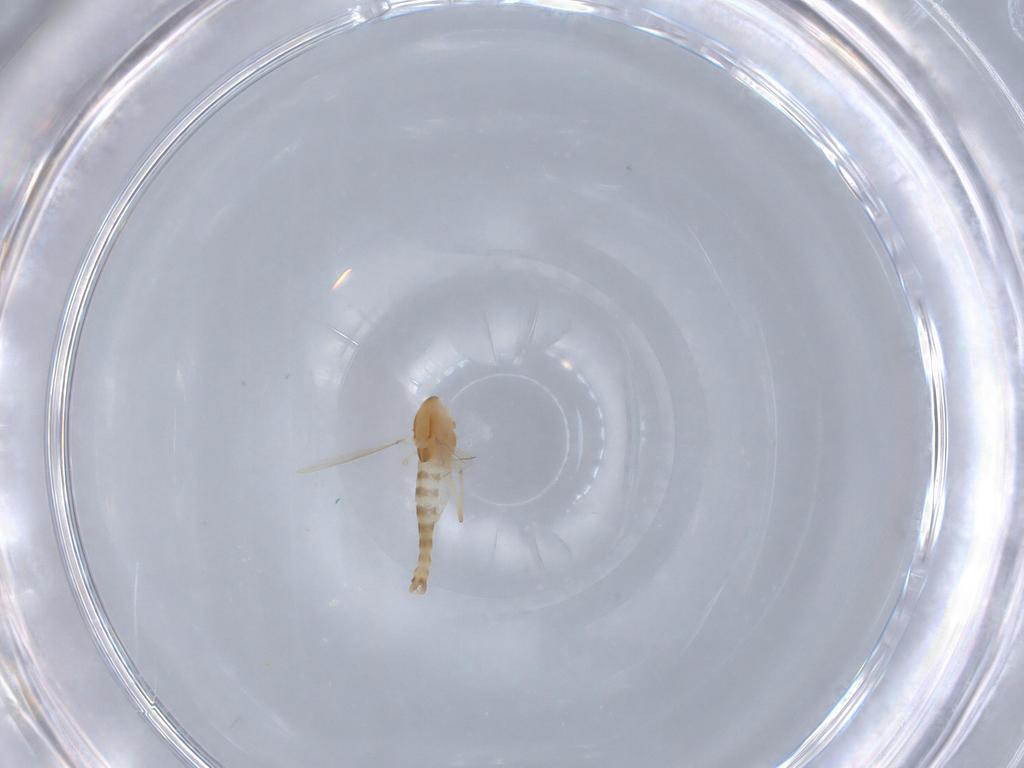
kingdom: Animalia
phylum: Arthropoda
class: Insecta
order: Diptera
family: Chironomidae
